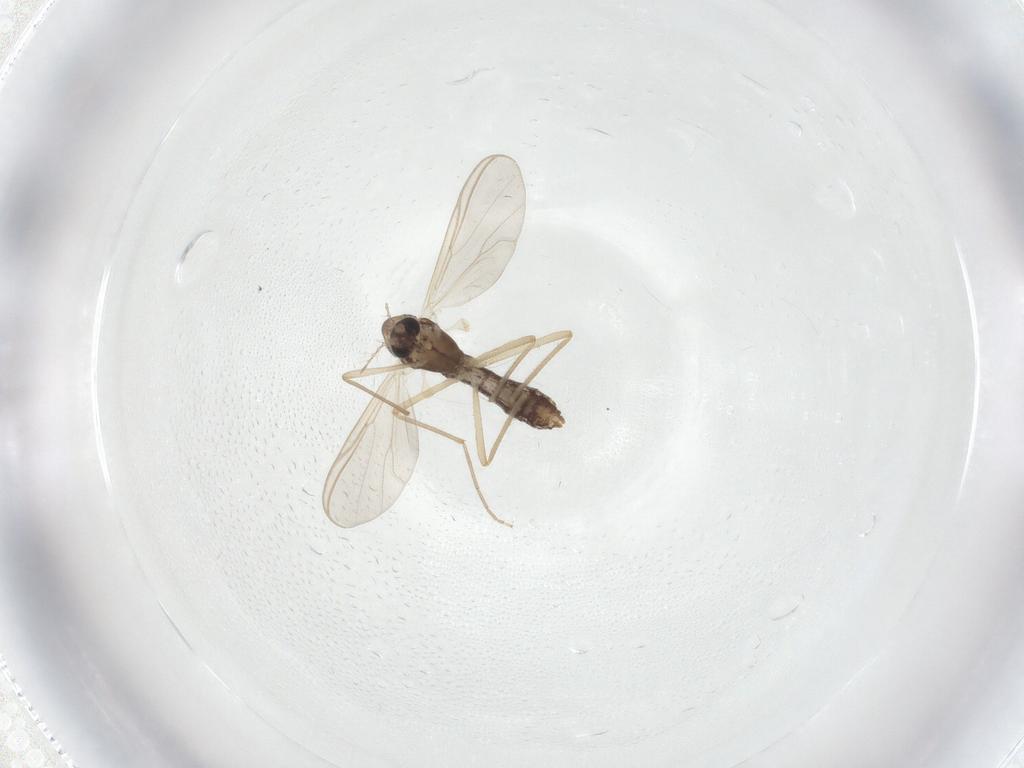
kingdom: Animalia
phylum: Arthropoda
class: Insecta
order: Diptera
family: Chironomidae
